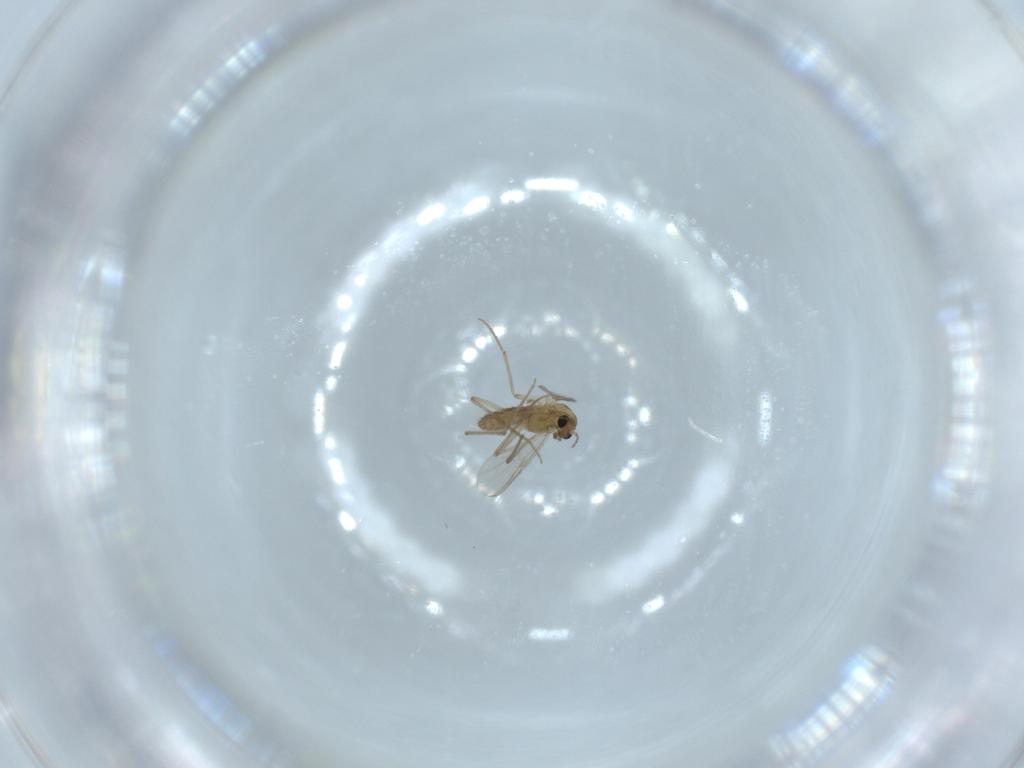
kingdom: Animalia
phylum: Arthropoda
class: Insecta
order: Diptera
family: Chironomidae
